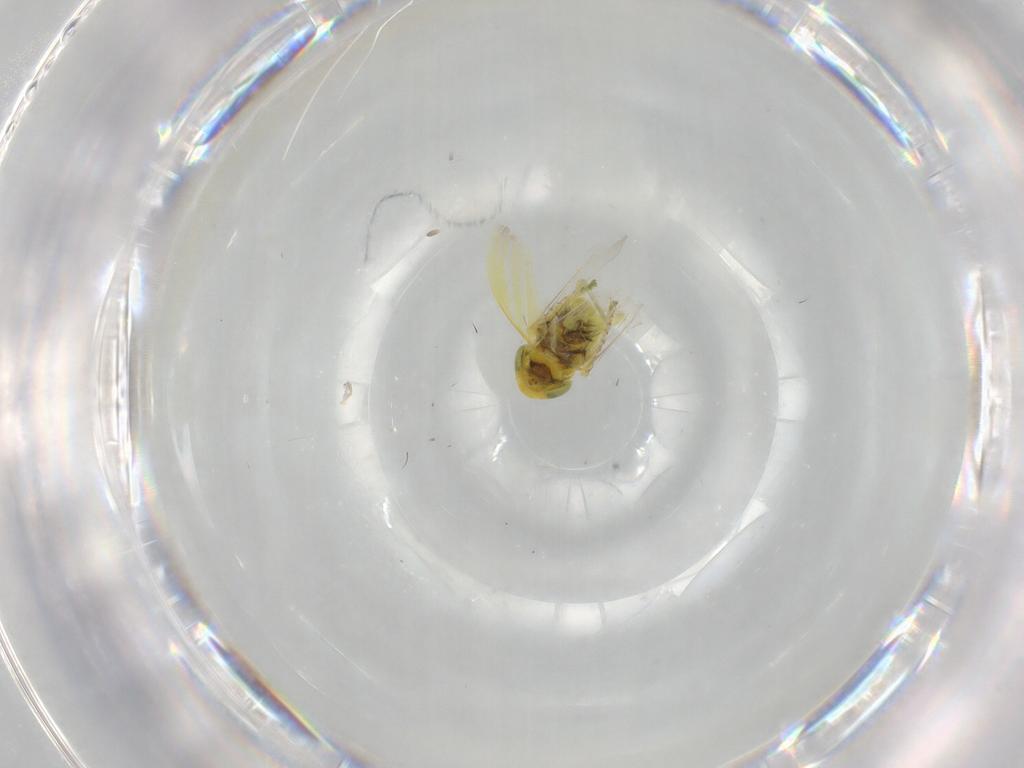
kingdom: Animalia
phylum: Arthropoda
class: Insecta
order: Hemiptera
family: Cicadellidae
